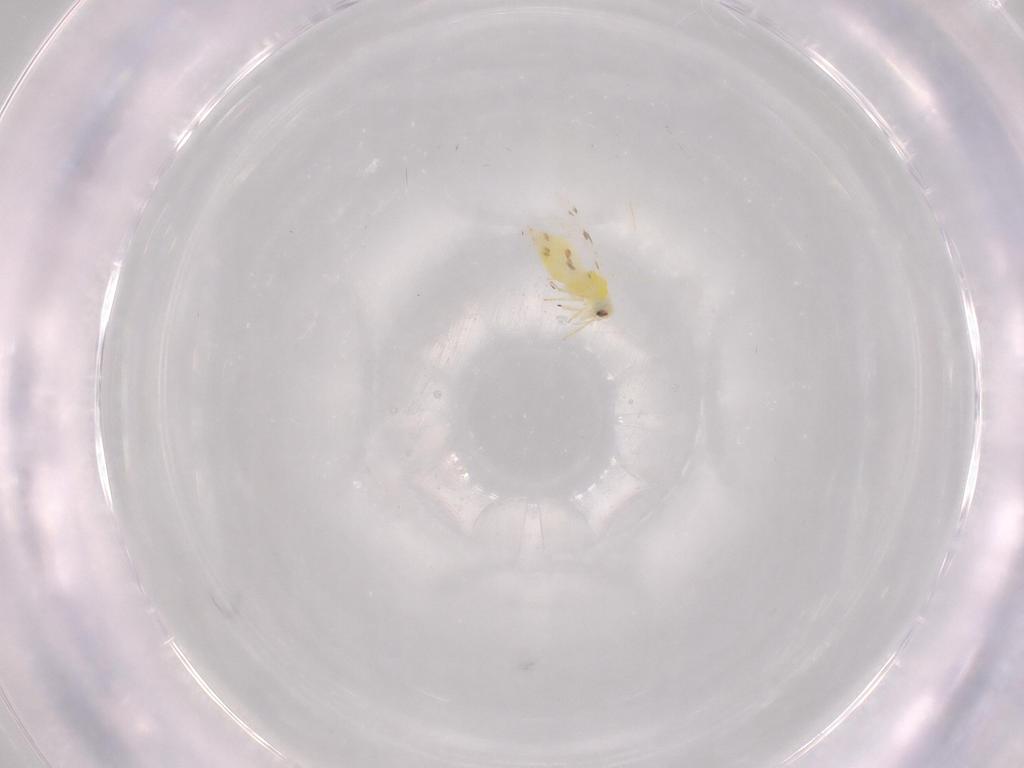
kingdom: Animalia
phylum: Arthropoda
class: Insecta
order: Hemiptera
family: Aleyrodidae
